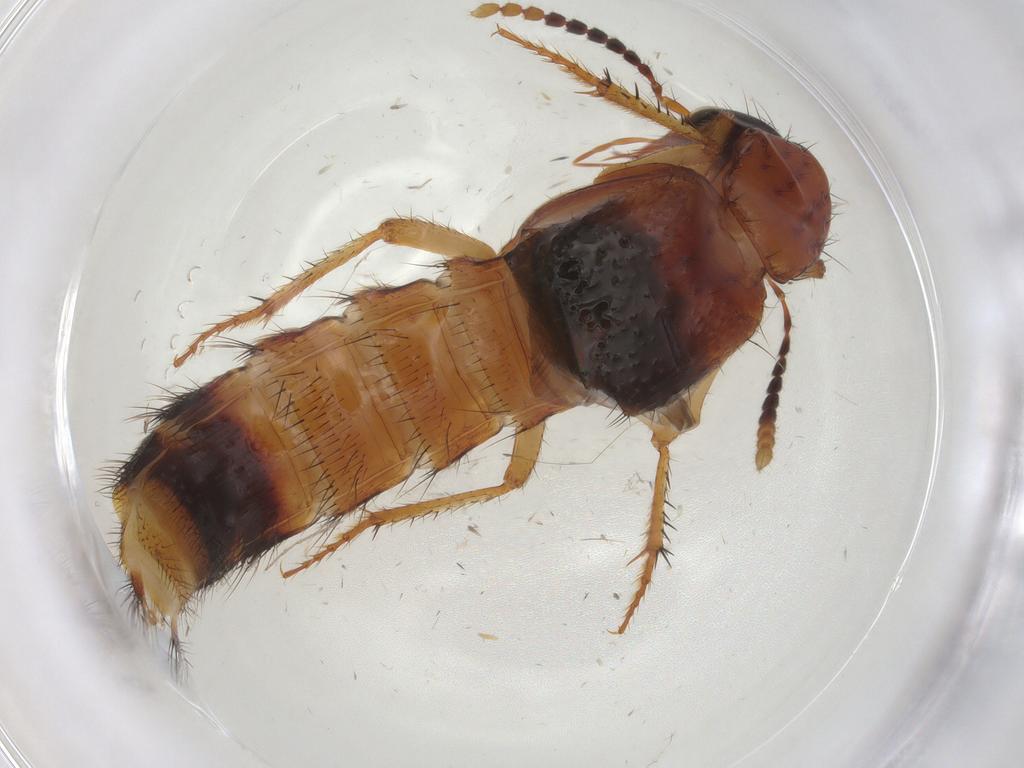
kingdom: Animalia
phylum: Arthropoda
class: Insecta
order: Coleoptera
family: Staphylinidae
